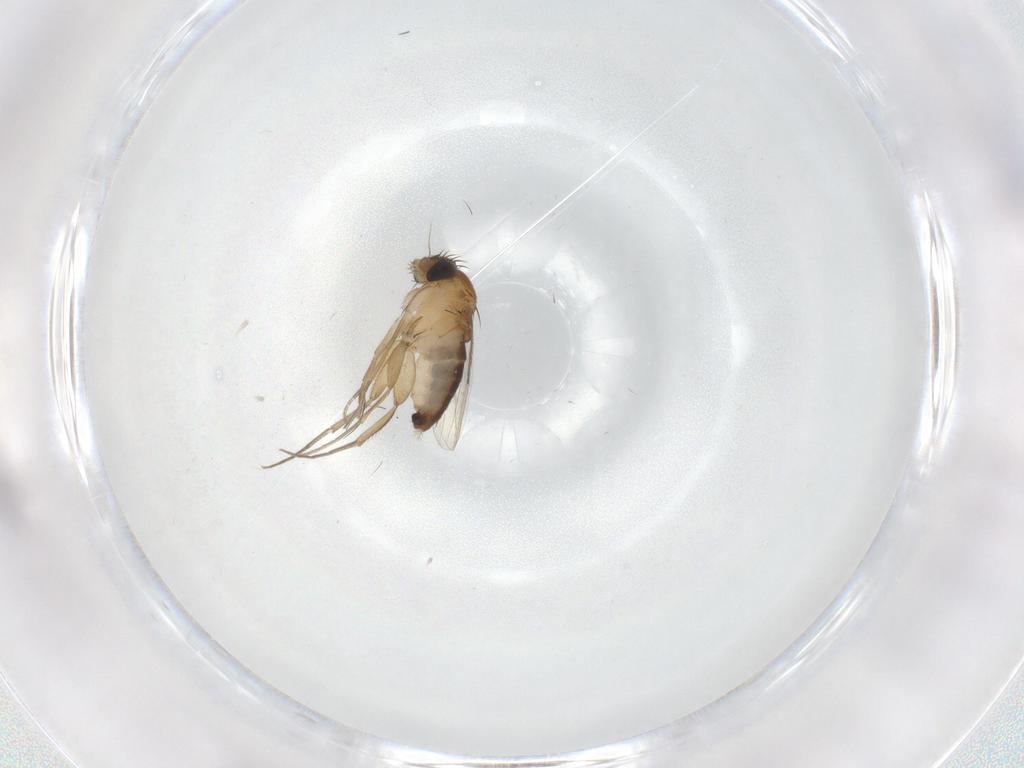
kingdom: Animalia
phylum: Arthropoda
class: Insecta
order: Diptera
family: Phoridae
